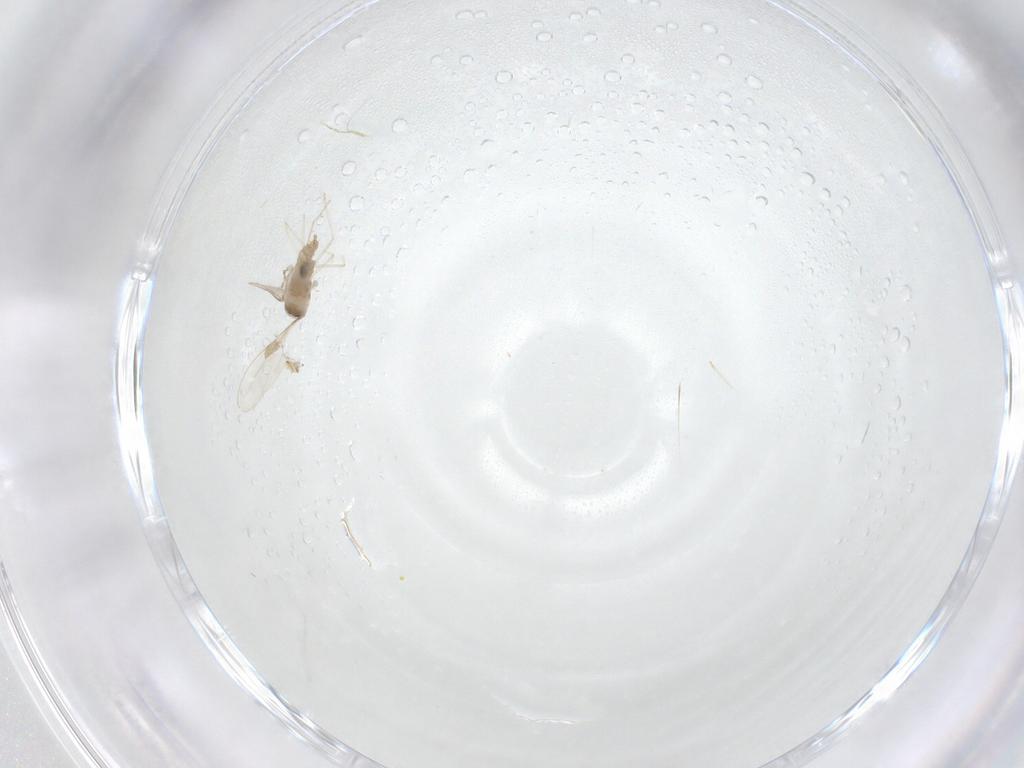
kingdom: Animalia
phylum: Arthropoda
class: Insecta
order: Diptera
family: Cecidomyiidae
